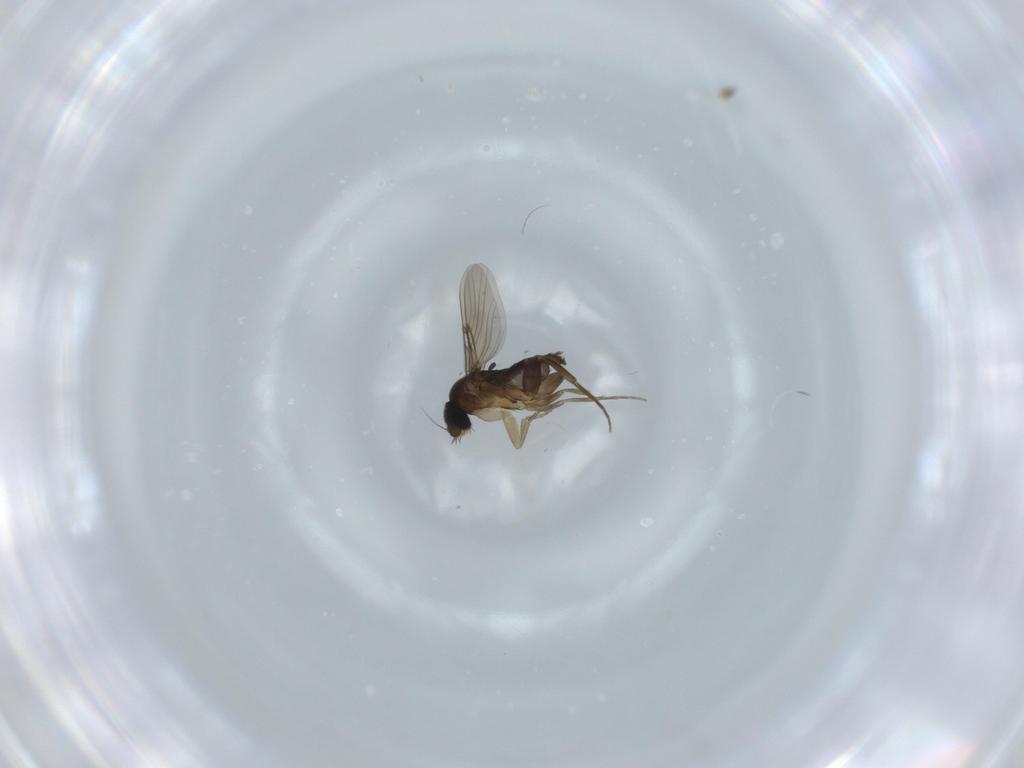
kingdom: Animalia
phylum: Arthropoda
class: Insecta
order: Diptera
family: Phoridae
